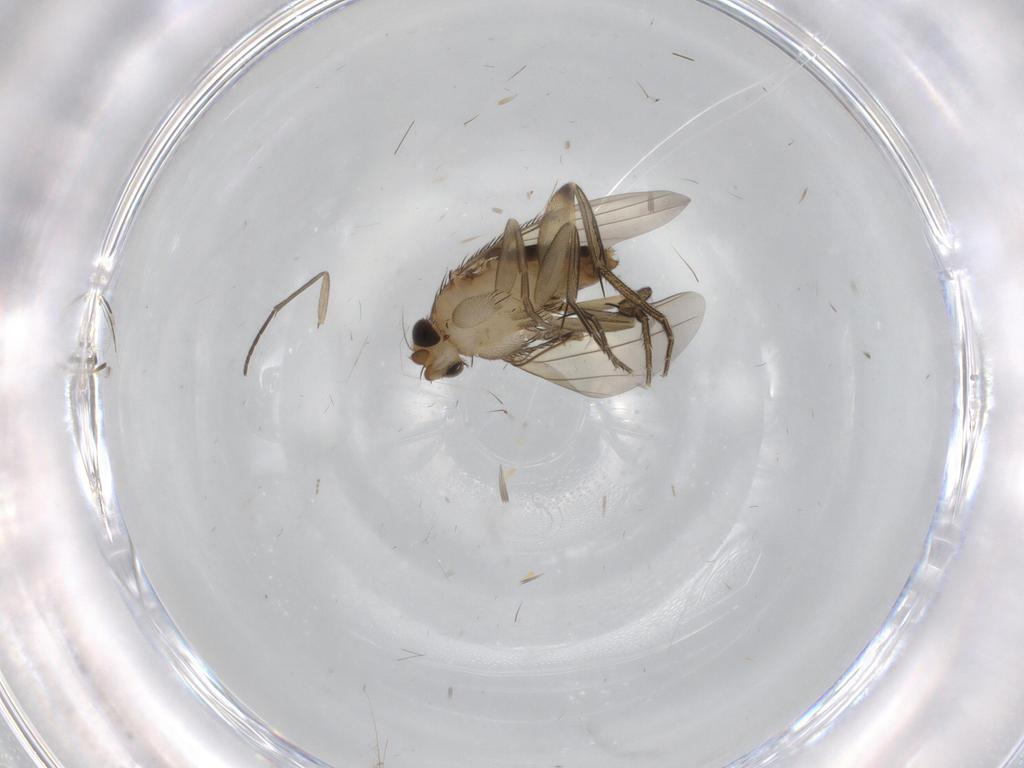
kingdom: Animalia
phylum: Arthropoda
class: Insecta
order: Diptera
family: Phoridae
